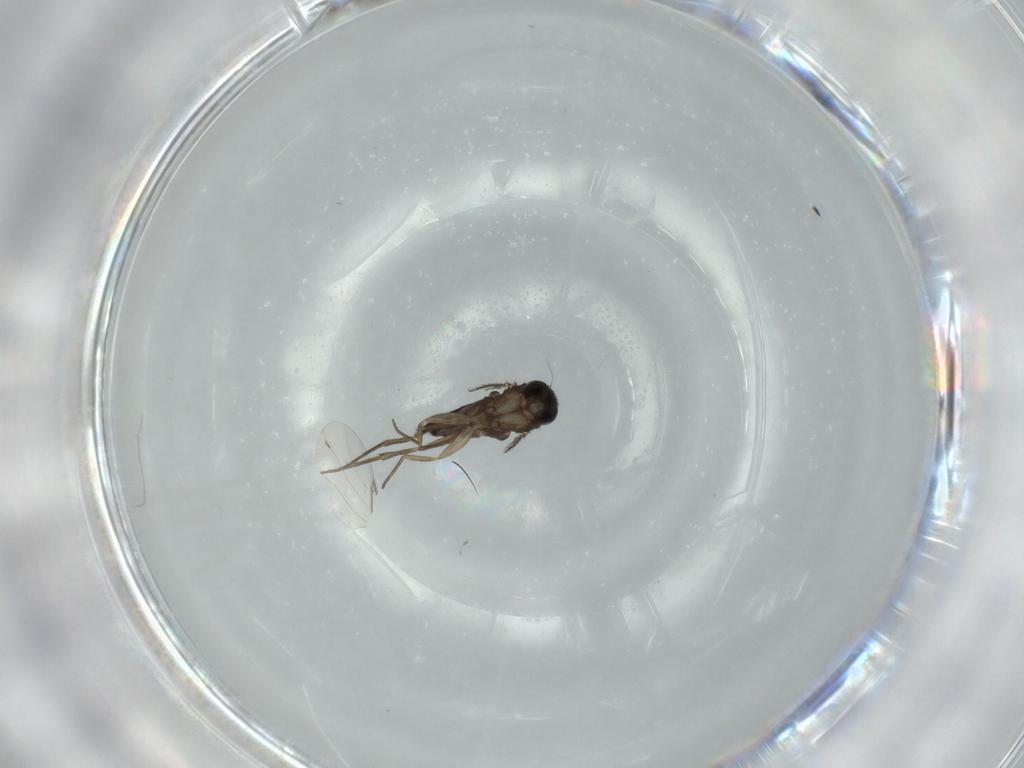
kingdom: Animalia
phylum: Arthropoda
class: Insecta
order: Diptera
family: Phoridae
